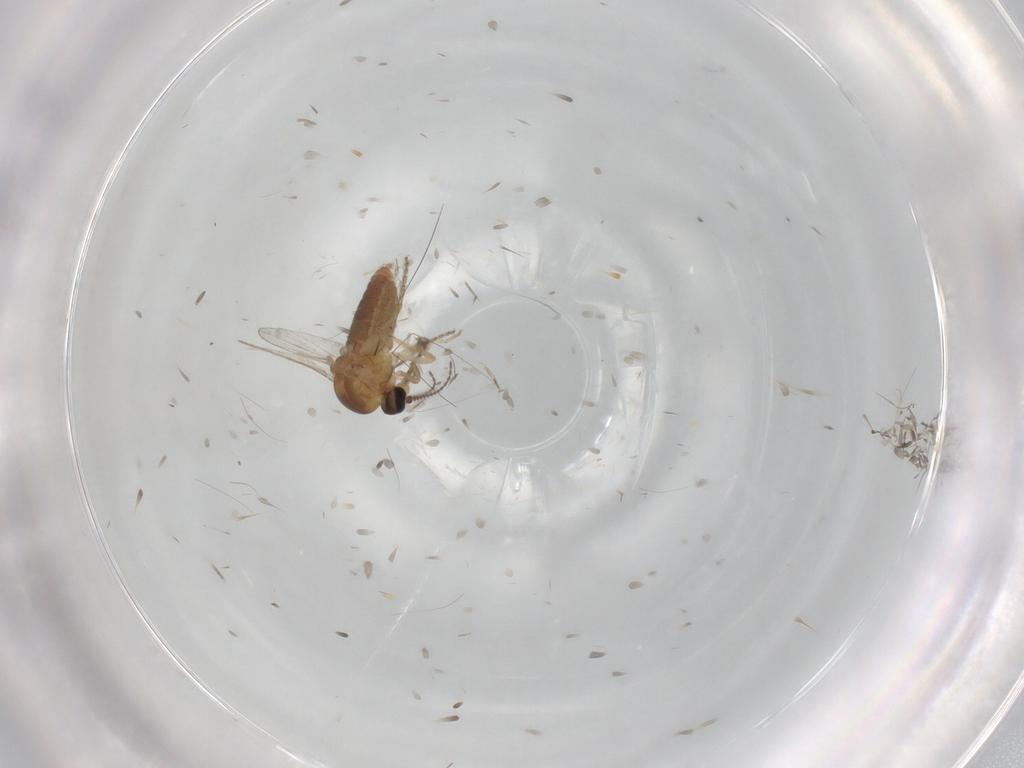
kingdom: Animalia
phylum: Arthropoda
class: Insecta
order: Diptera
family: Ceratopogonidae
